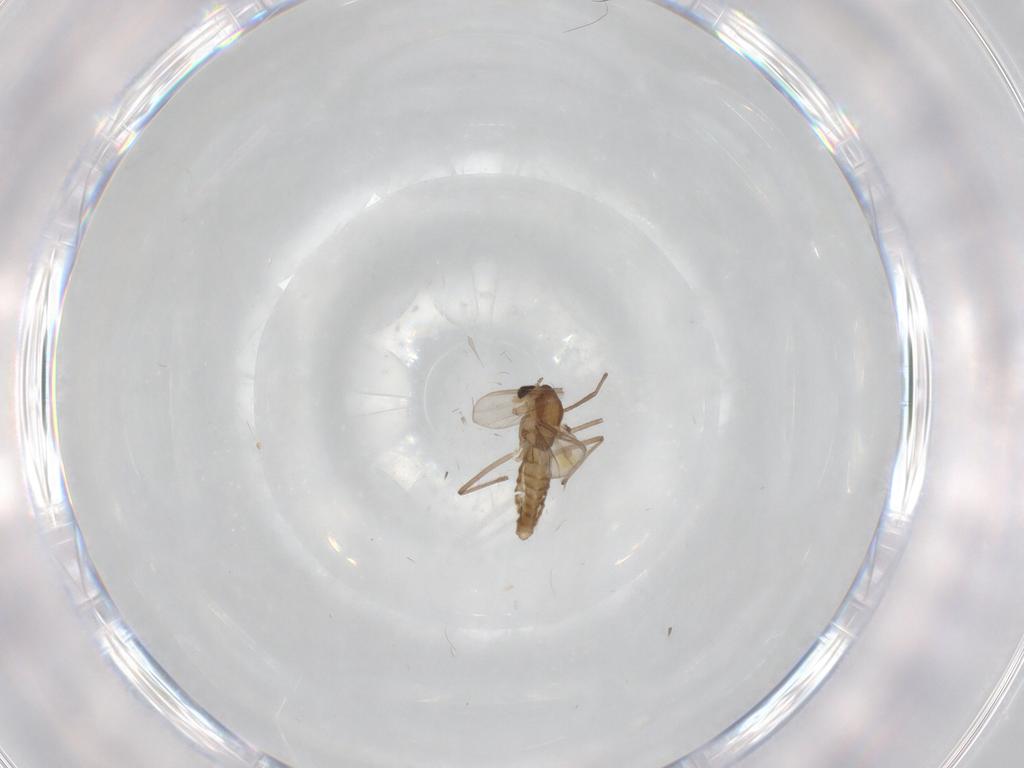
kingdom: Animalia
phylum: Arthropoda
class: Insecta
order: Diptera
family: Chironomidae
